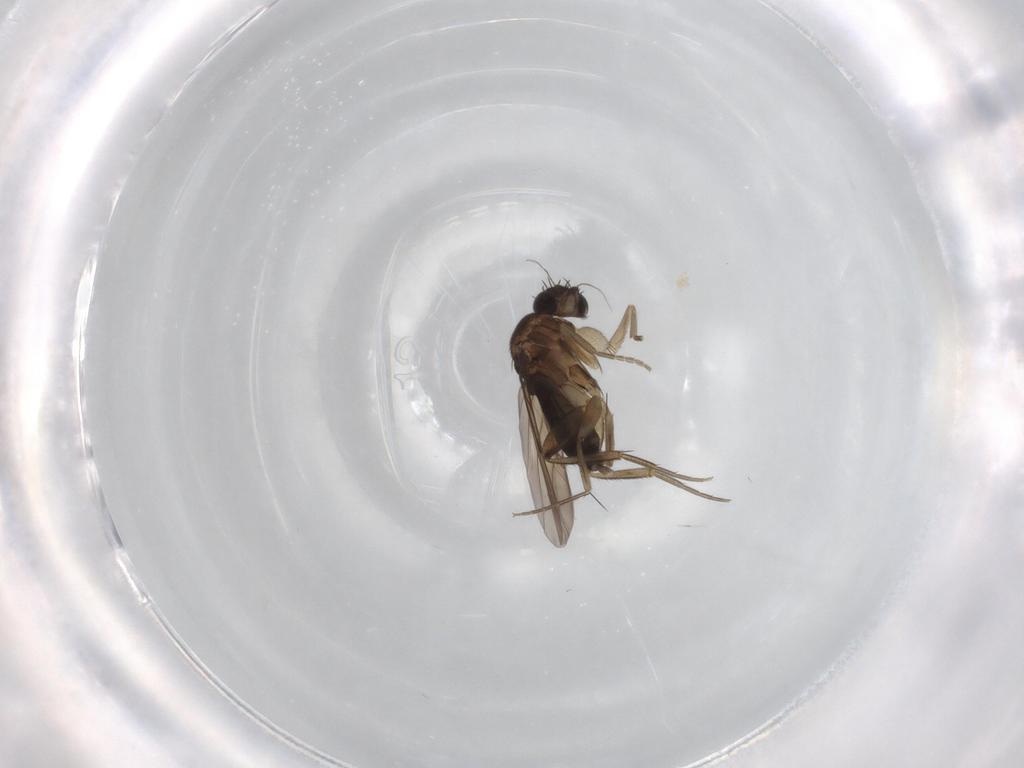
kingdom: Animalia
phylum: Arthropoda
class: Insecta
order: Diptera
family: Phoridae
